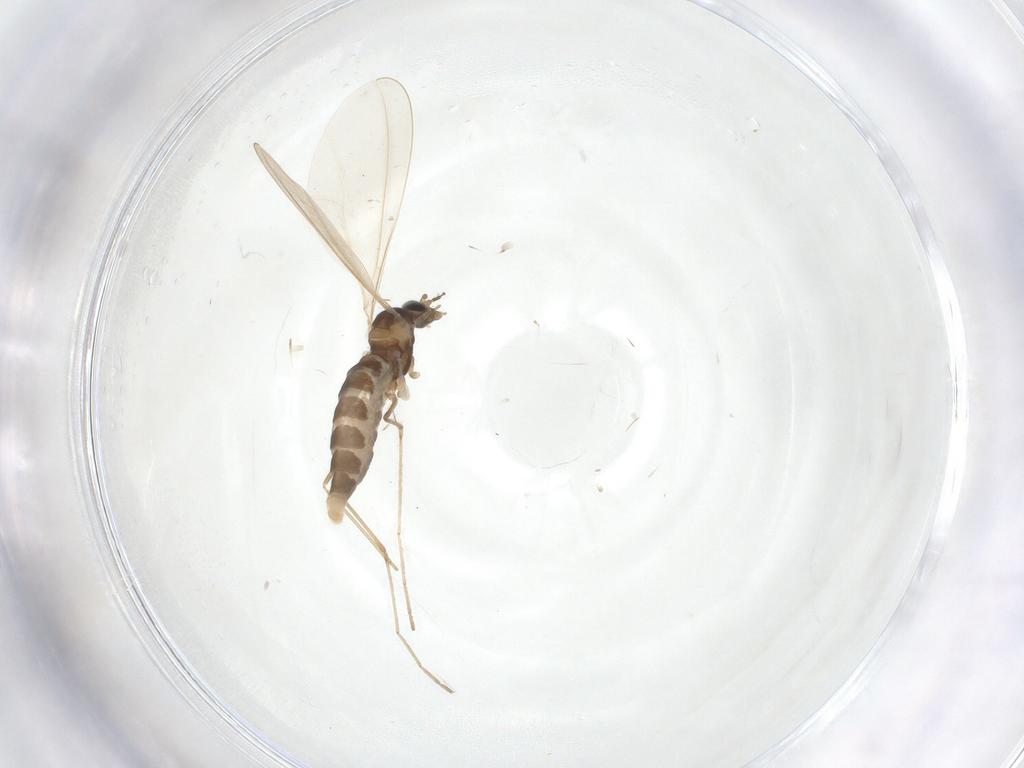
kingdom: Animalia
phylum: Arthropoda
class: Insecta
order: Diptera
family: Cecidomyiidae
